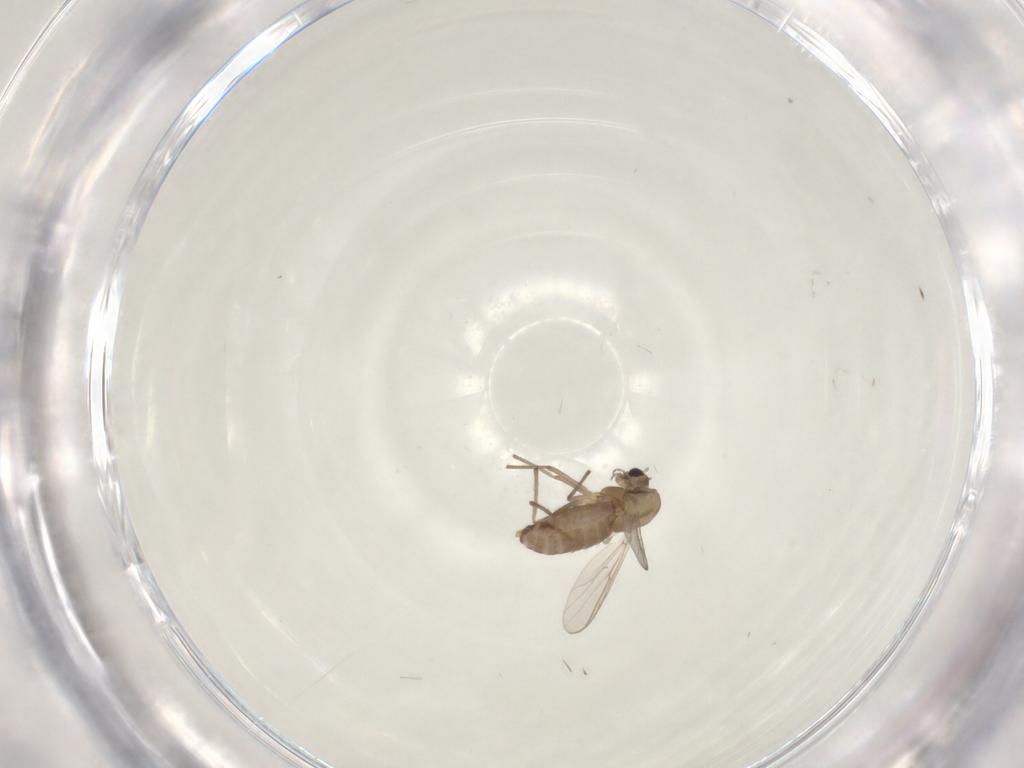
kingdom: Animalia
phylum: Arthropoda
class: Insecta
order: Diptera
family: Chironomidae
